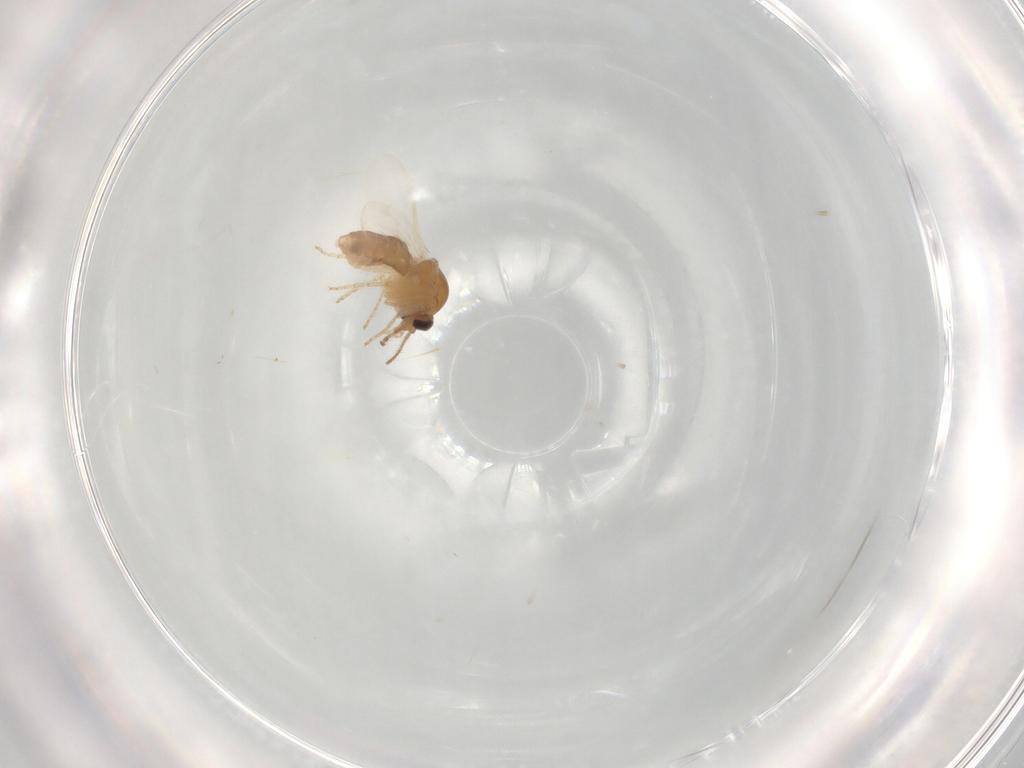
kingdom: Animalia
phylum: Arthropoda
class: Insecta
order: Diptera
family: Ceratopogonidae
